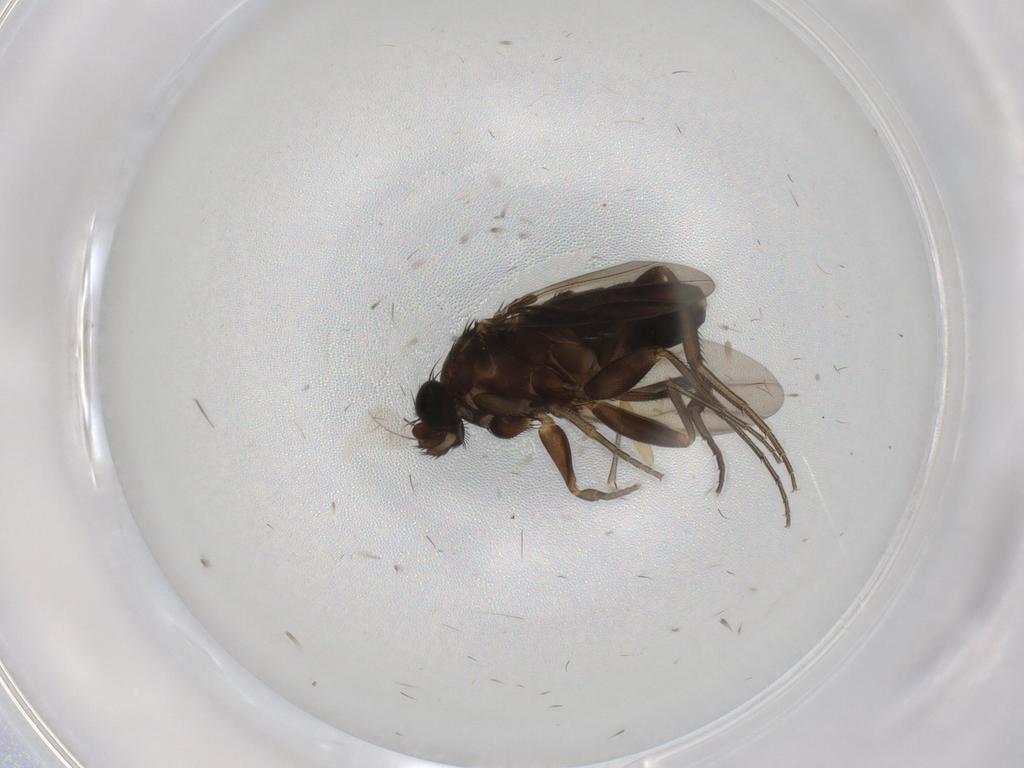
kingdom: Animalia
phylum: Arthropoda
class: Insecta
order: Diptera
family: Phoridae
